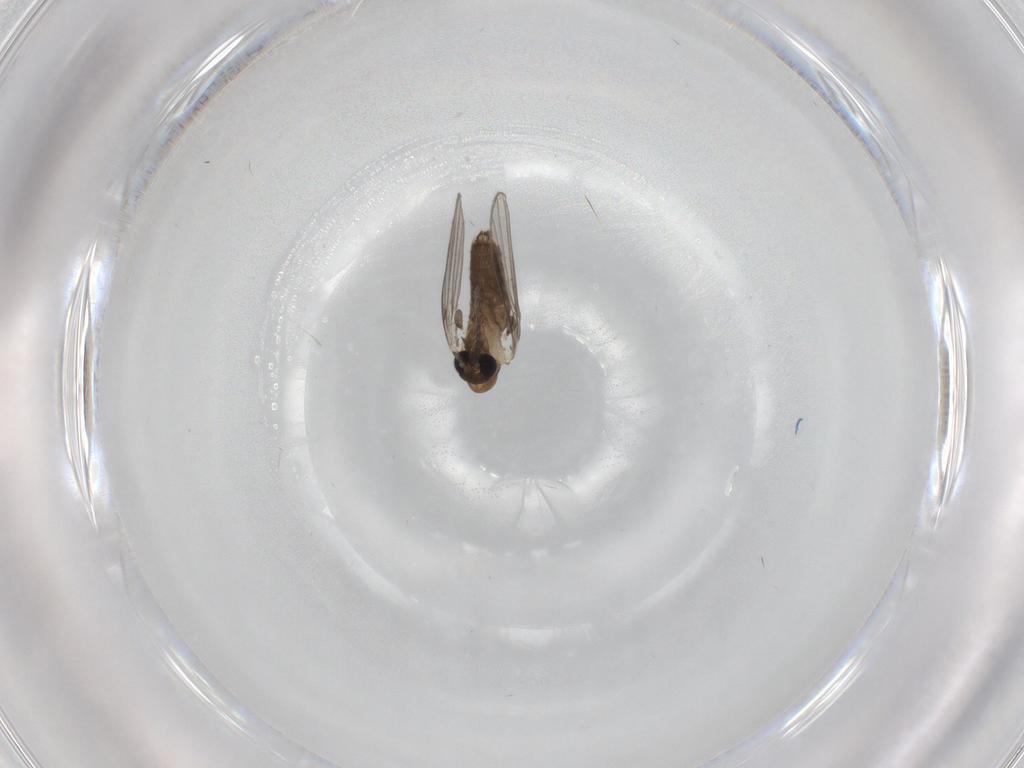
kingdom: Animalia
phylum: Arthropoda
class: Insecta
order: Diptera
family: Psychodidae
